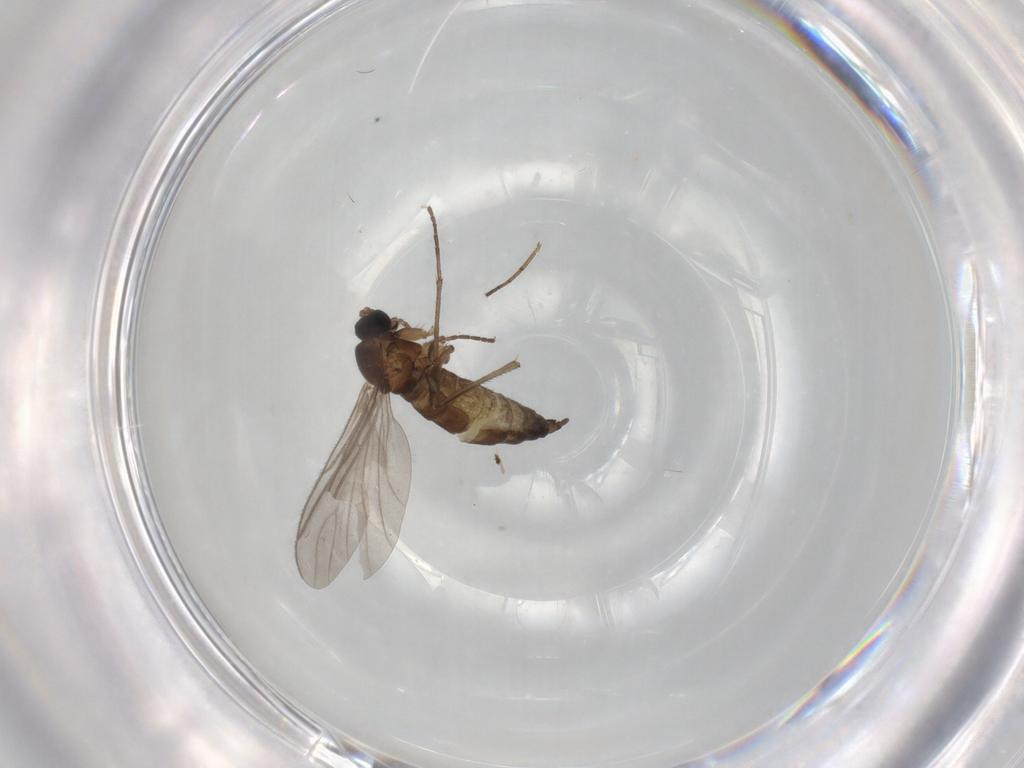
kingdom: Animalia
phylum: Arthropoda
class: Insecta
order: Diptera
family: Sciaridae
